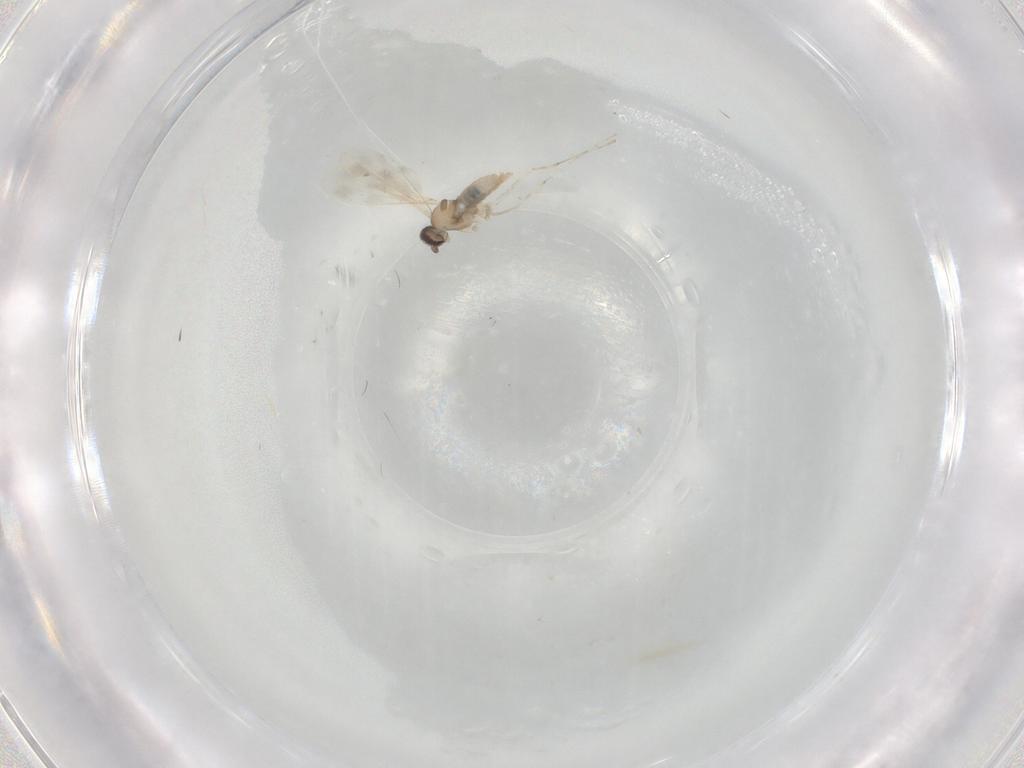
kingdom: Animalia
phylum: Arthropoda
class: Insecta
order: Diptera
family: Cecidomyiidae
